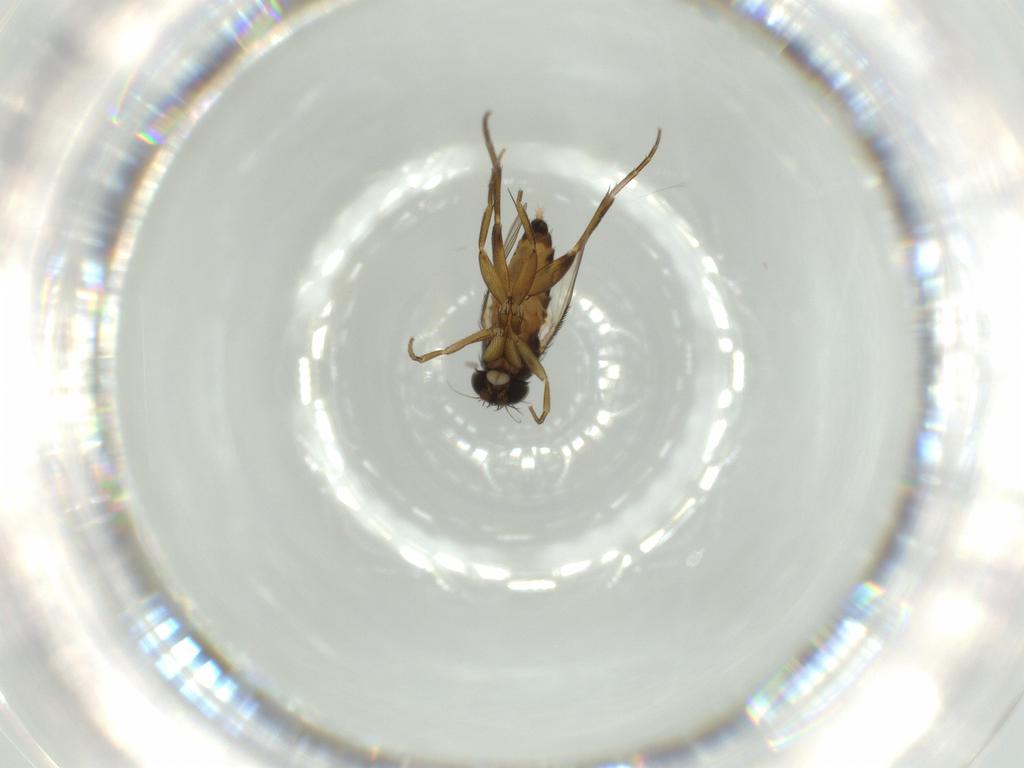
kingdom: Animalia
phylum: Arthropoda
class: Insecta
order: Diptera
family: Phoridae
